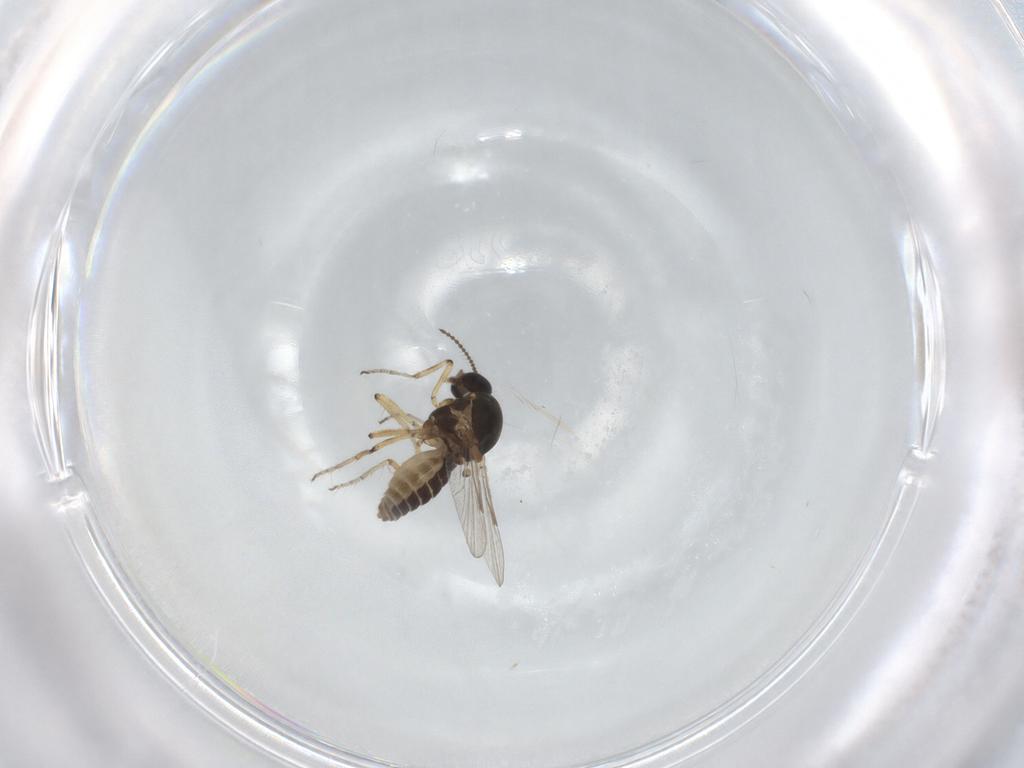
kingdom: Animalia
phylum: Arthropoda
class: Insecta
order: Diptera
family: Ceratopogonidae
